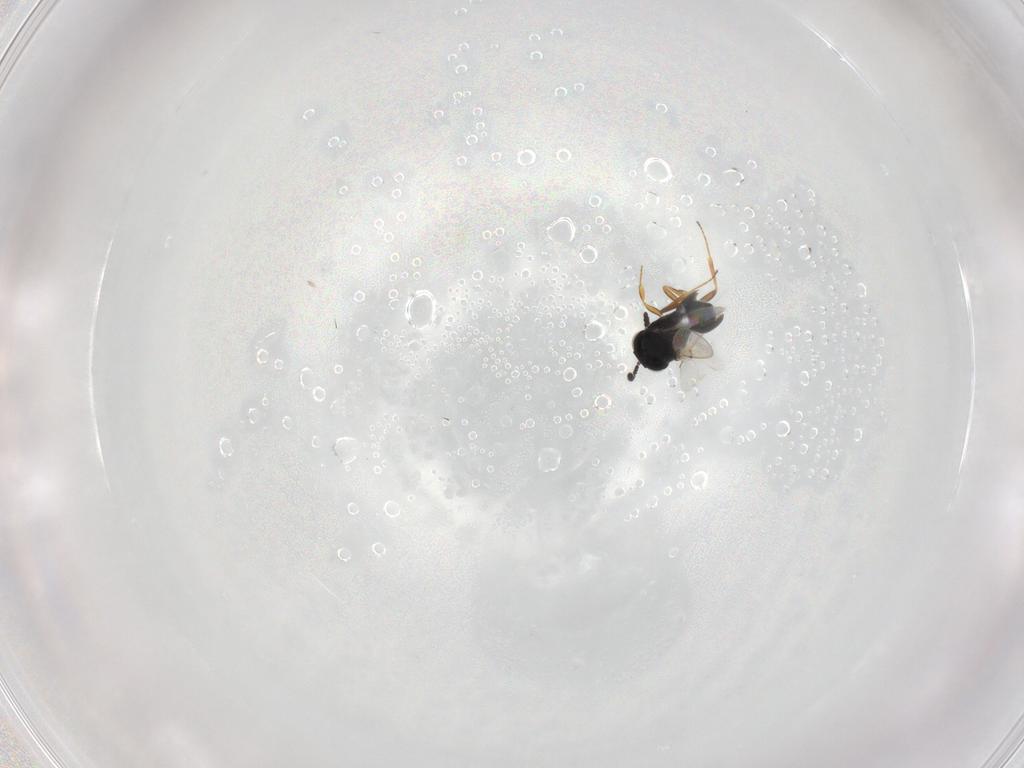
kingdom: Animalia
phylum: Arthropoda
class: Insecta
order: Hymenoptera
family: Scelionidae
